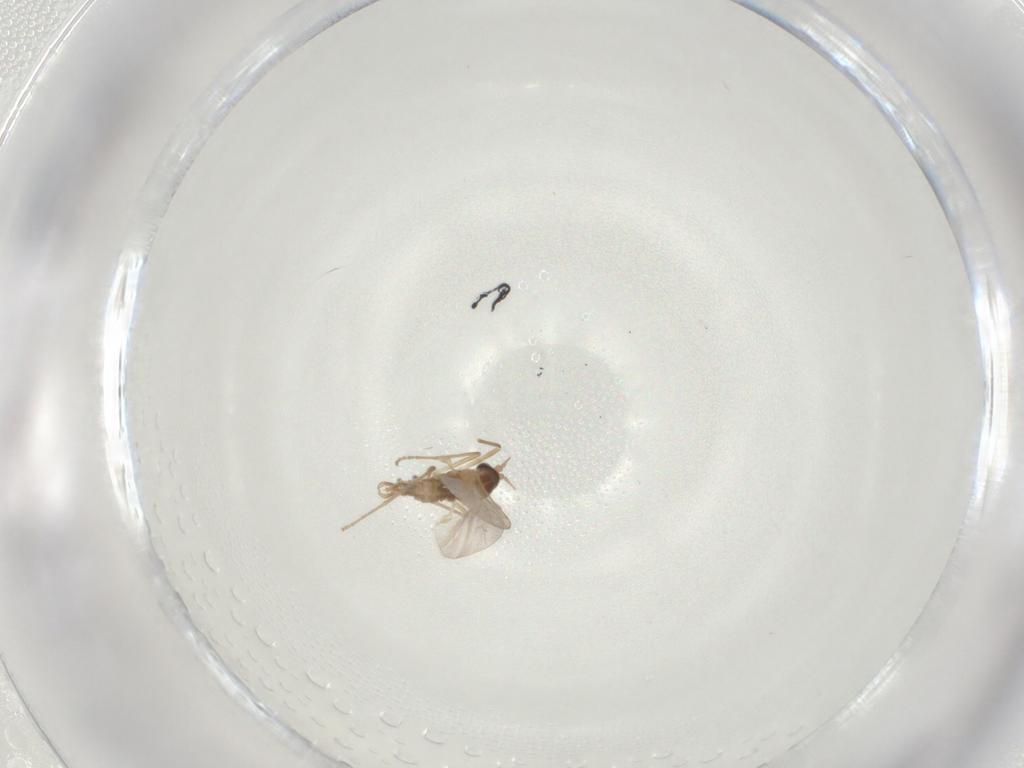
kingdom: Animalia
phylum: Arthropoda
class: Insecta
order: Diptera
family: Cecidomyiidae
